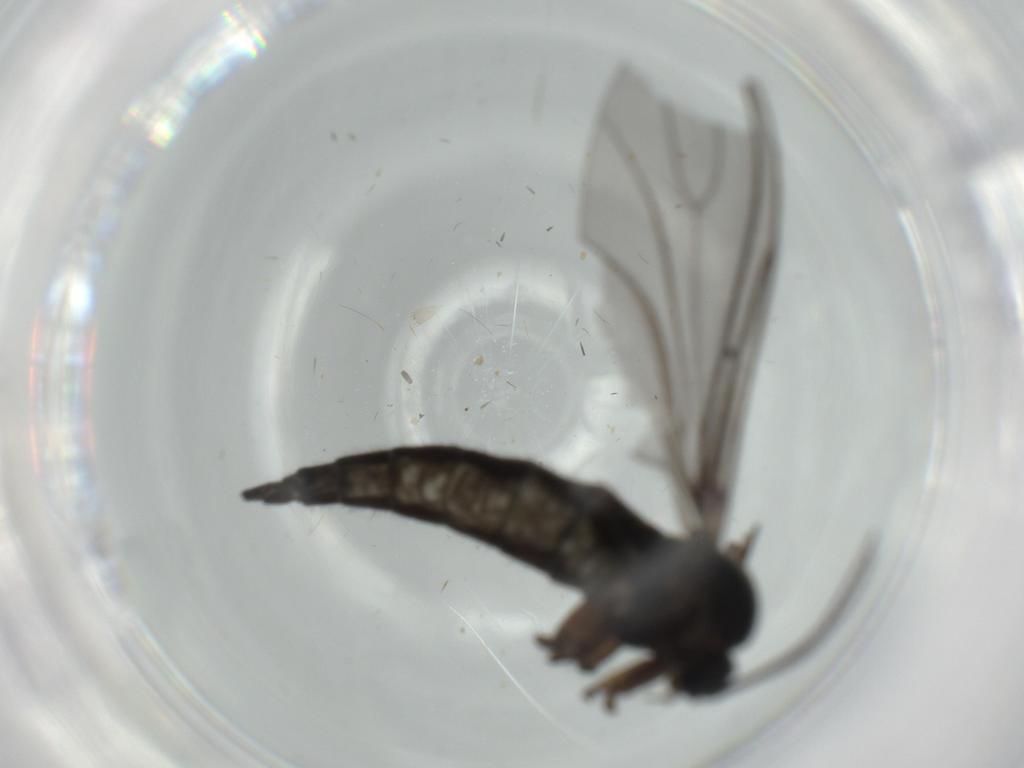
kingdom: Animalia
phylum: Arthropoda
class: Insecta
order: Diptera
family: Sciaridae
